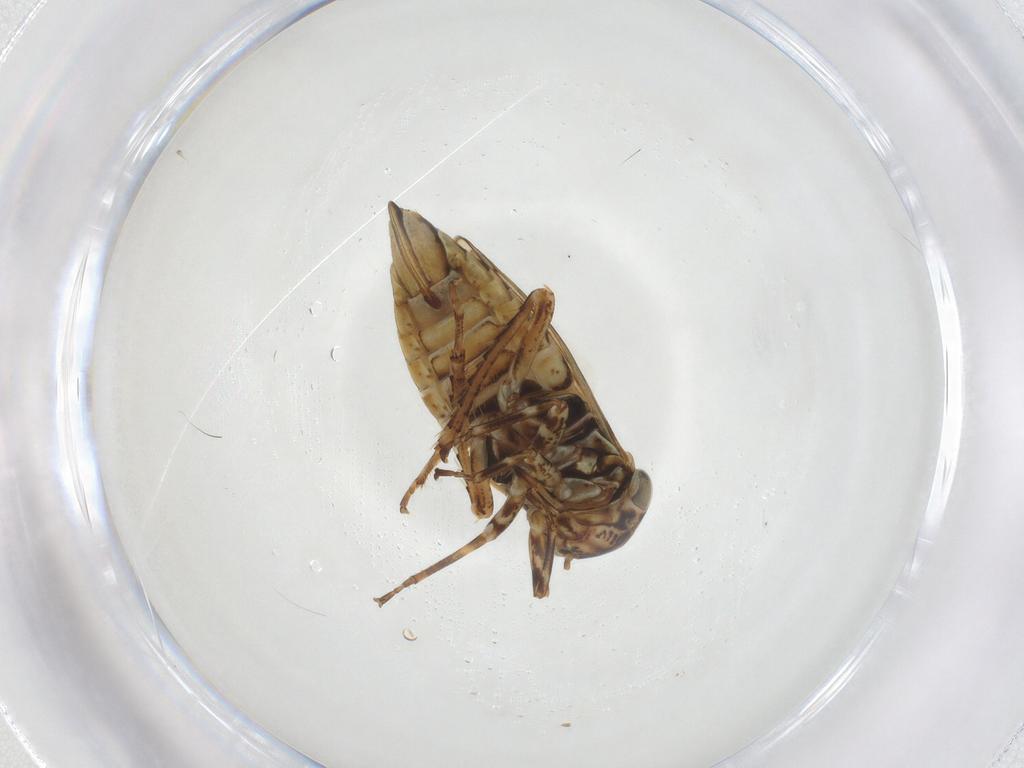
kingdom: Animalia
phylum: Arthropoda
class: Insecta
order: Hemiptera
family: Cicadellidae
